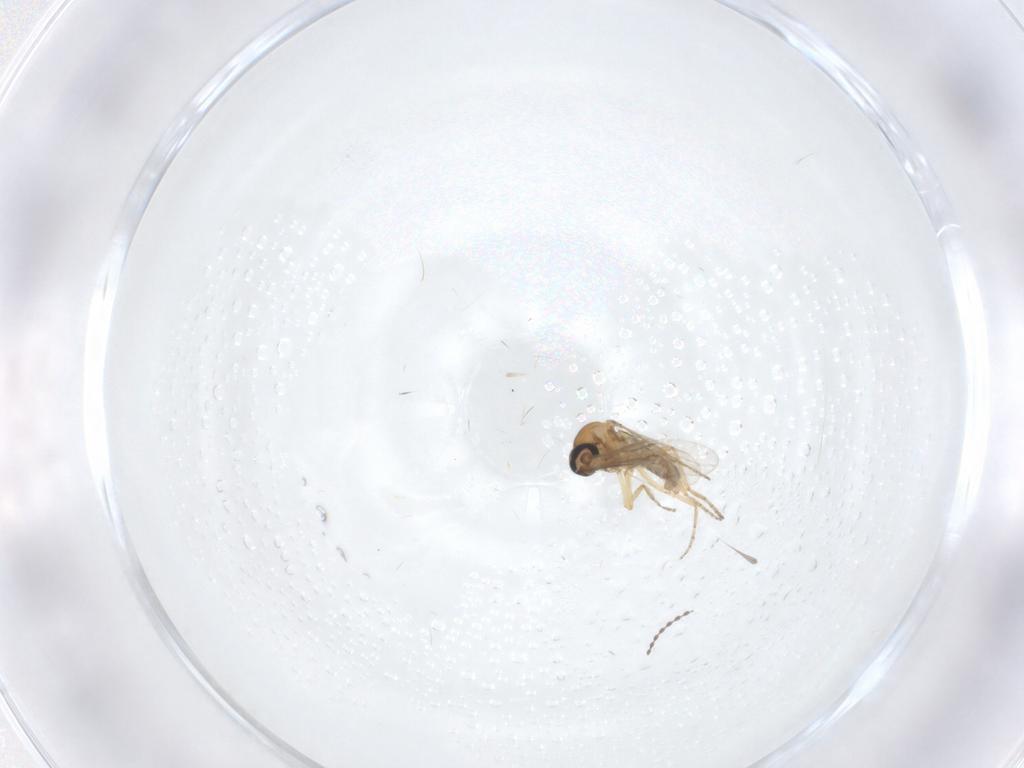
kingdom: Animalia
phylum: Arthropoda
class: Insecta
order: Diptera
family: Ceratopogonidae
